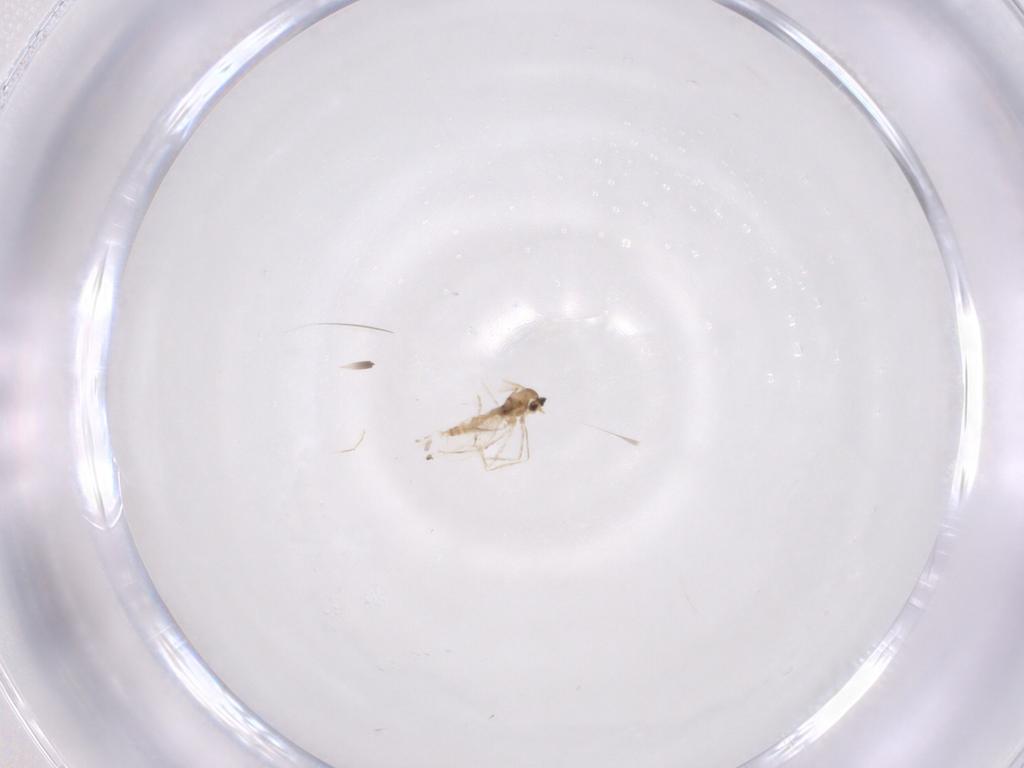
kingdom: Animalia
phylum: Arthropoda
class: Insecta
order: Diptera
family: Cecidomyiidae
